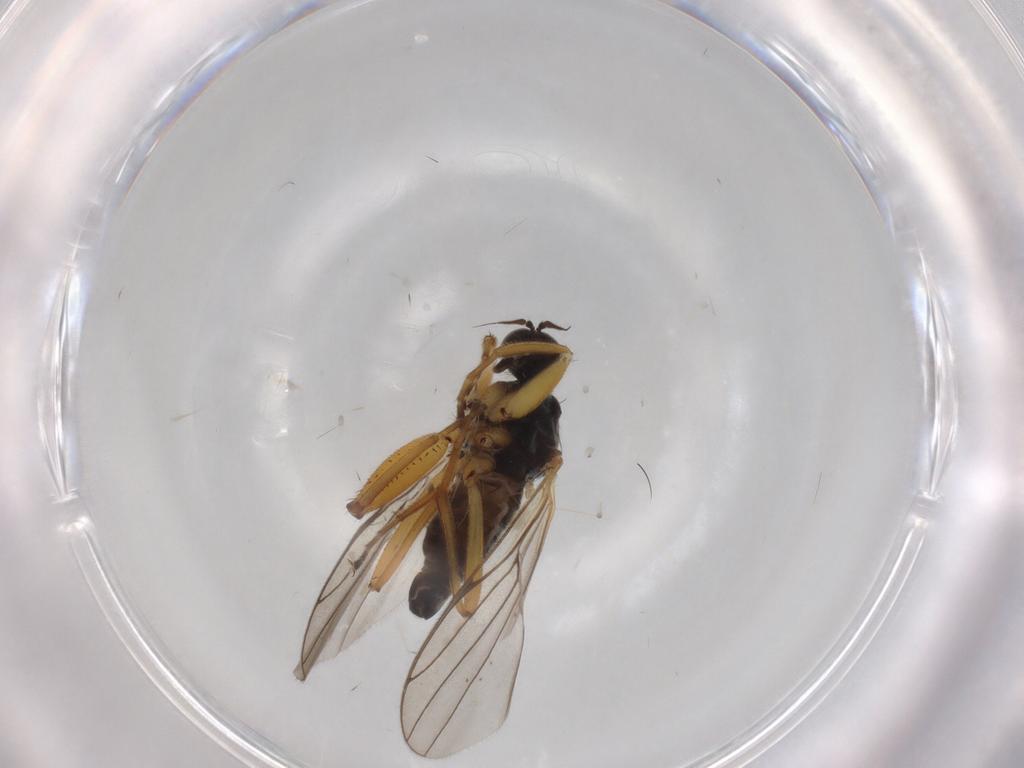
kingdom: Animalia
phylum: Arthropoda
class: Insecta
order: Diptera
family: Hybotidae
